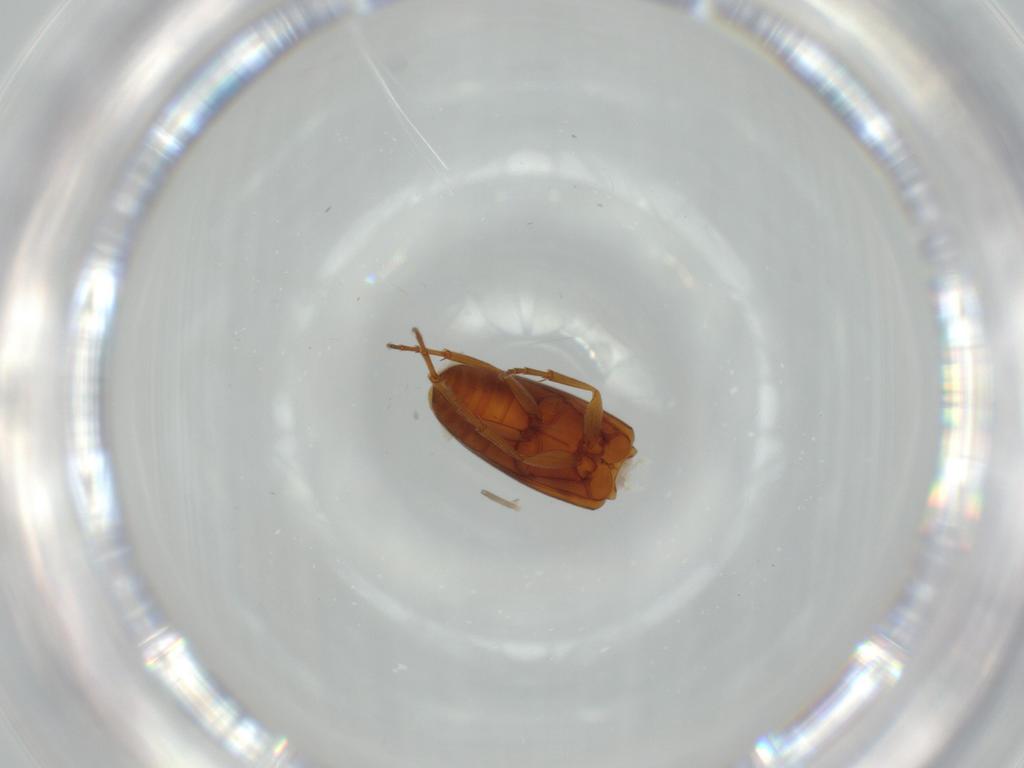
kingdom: Animalia
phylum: Arthropoda
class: Insecta
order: Coleoptera
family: Scraptiidae
